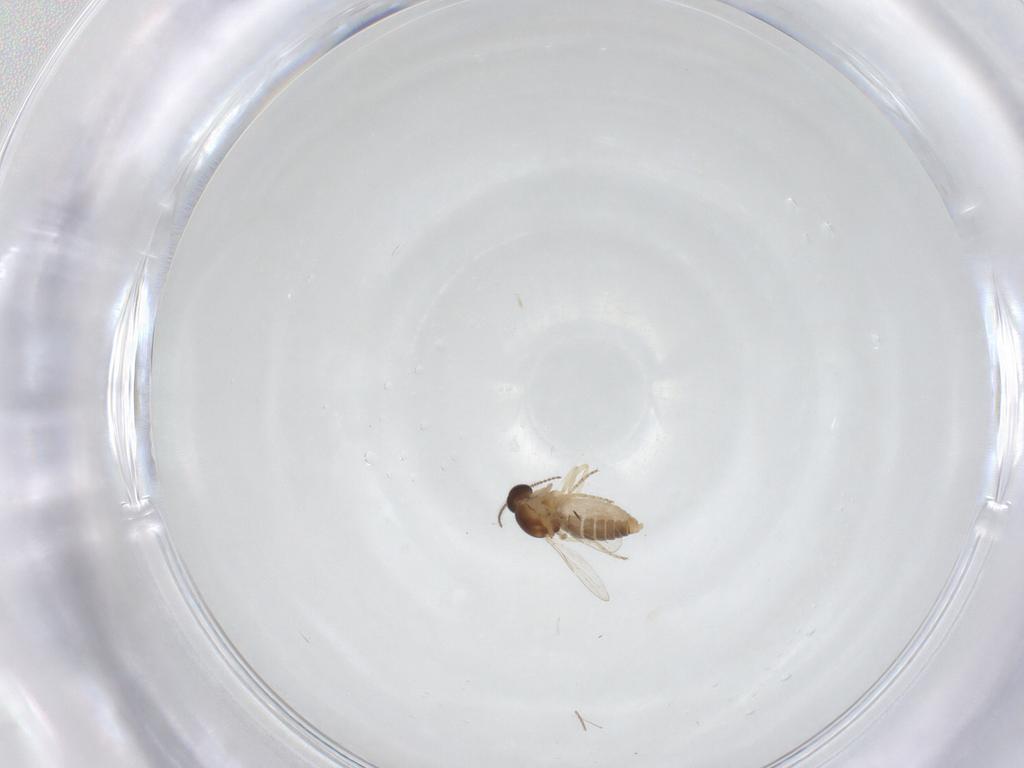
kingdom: Animalia
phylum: Arthropoda
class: Insecta
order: Diptera
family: Ceratopogonidae
